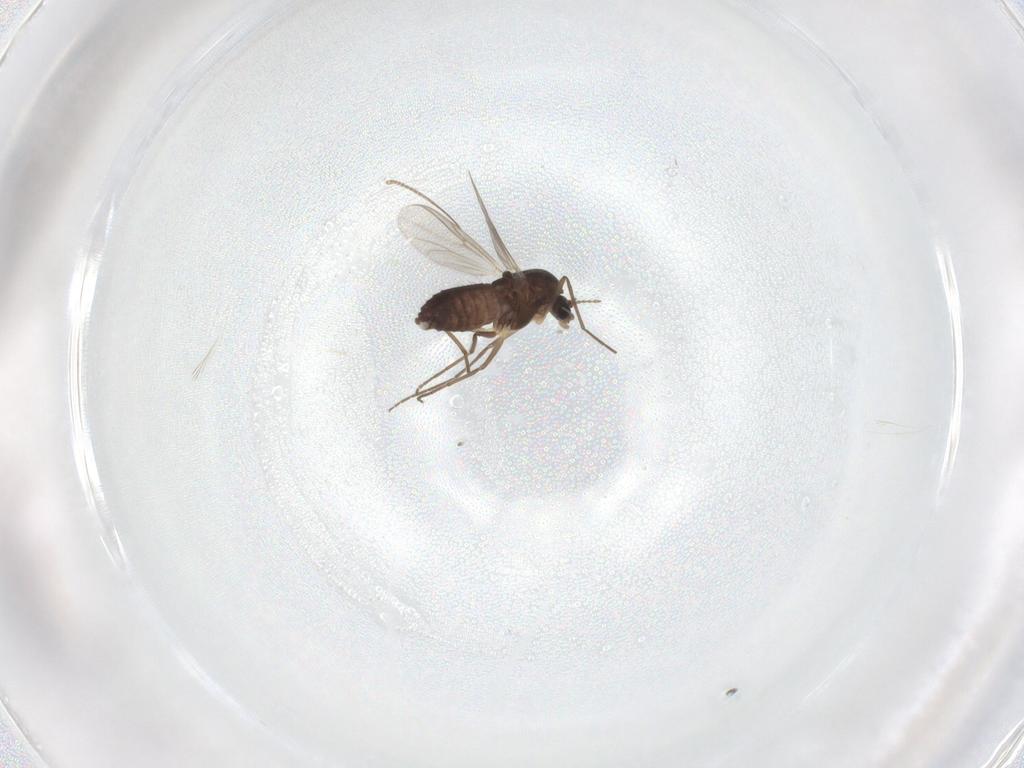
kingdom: Animalia
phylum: Arthropoda
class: Insecta
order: Diptera
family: Chironomidae
